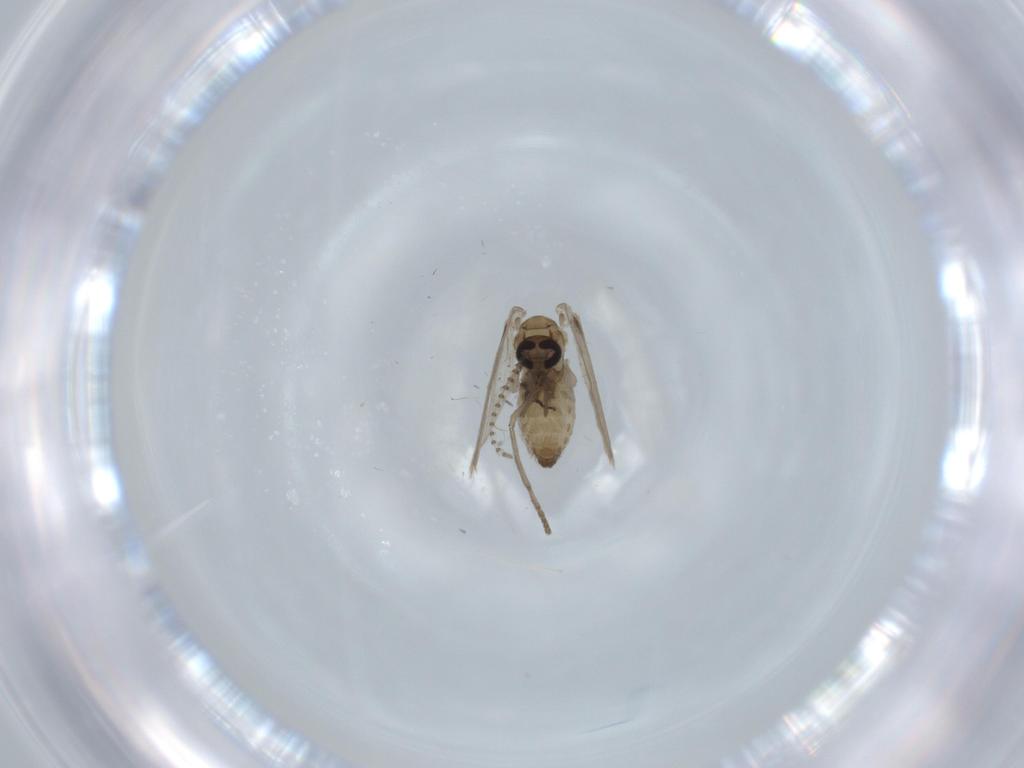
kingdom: Animalia
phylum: Arthropoda
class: Insecta
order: Diptera
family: Psychodidae
